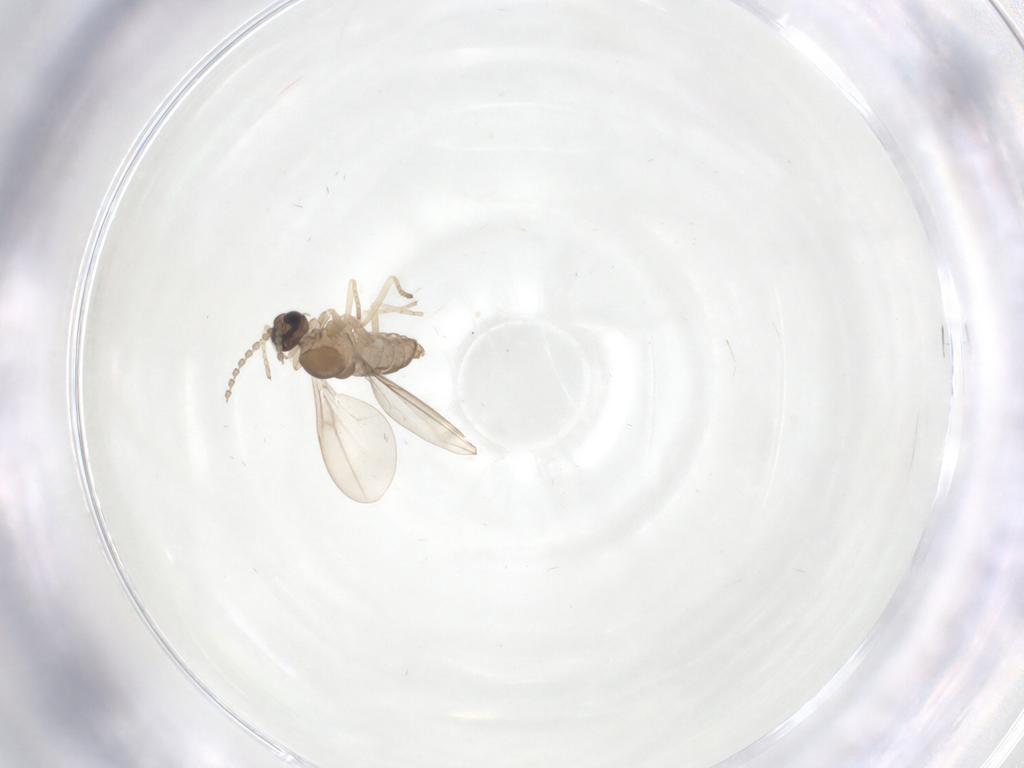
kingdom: Animalia
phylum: Arthropoda
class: Insecta
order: Diptera
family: Cecidomyiidae
